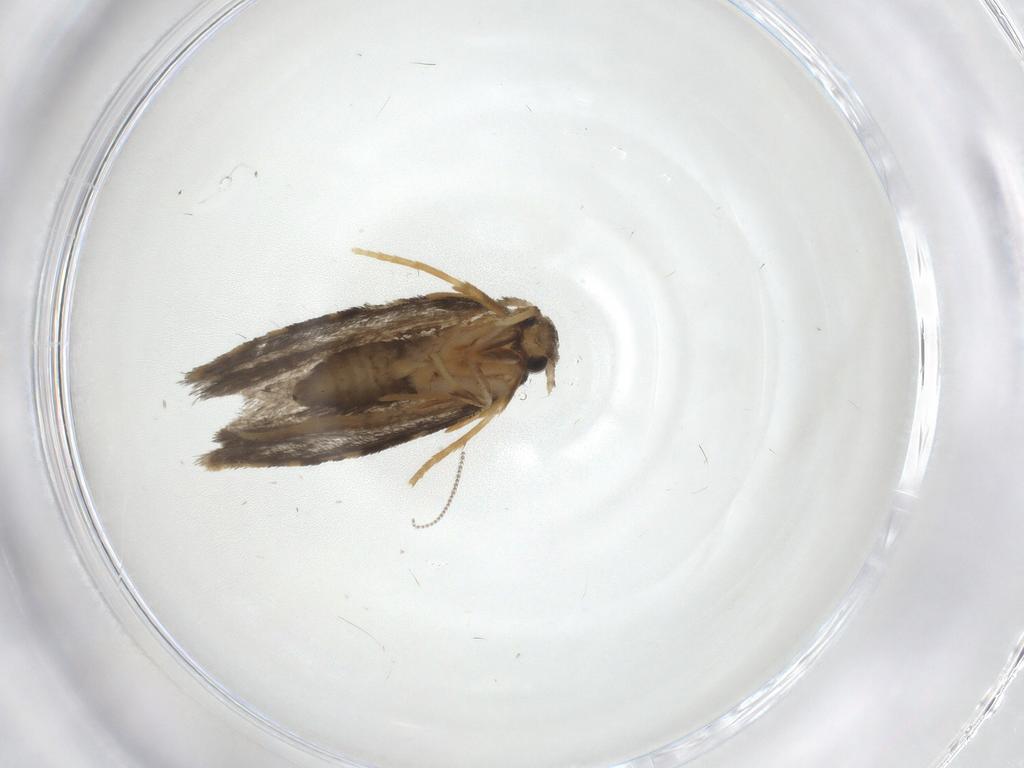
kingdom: Animalia
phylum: Arthropoda
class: Insecta
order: Lepidoptera
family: Psychidae
